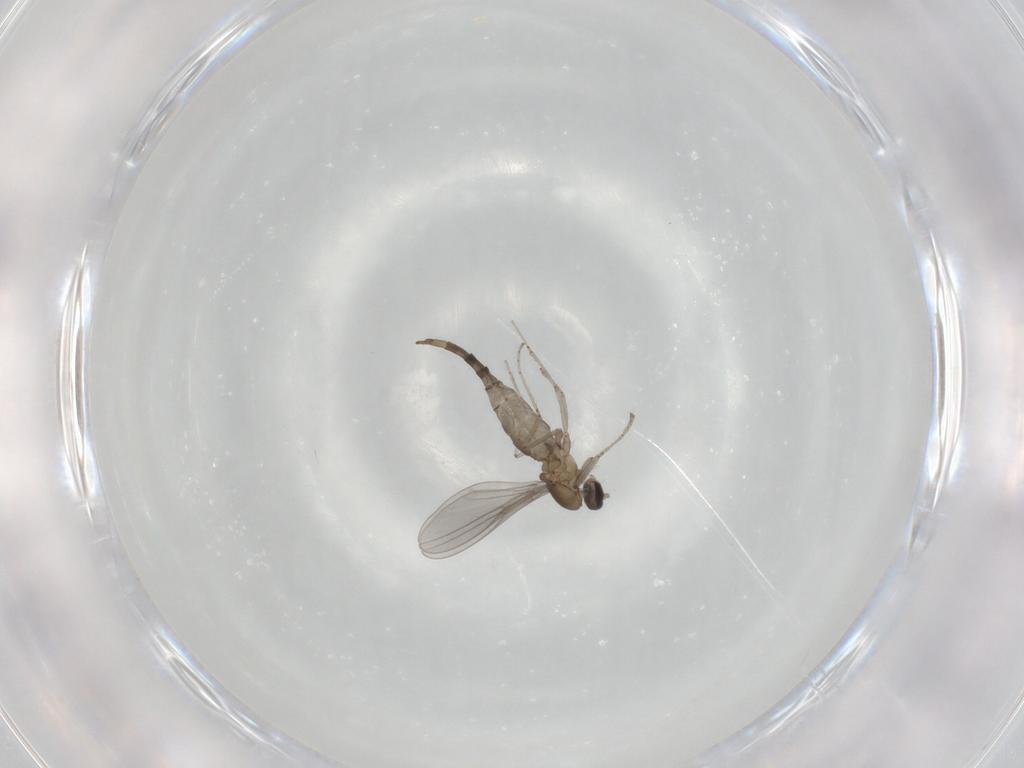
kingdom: Animalia
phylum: Arthropoda
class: Insecta
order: Diptera
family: Cecidomyiidae
